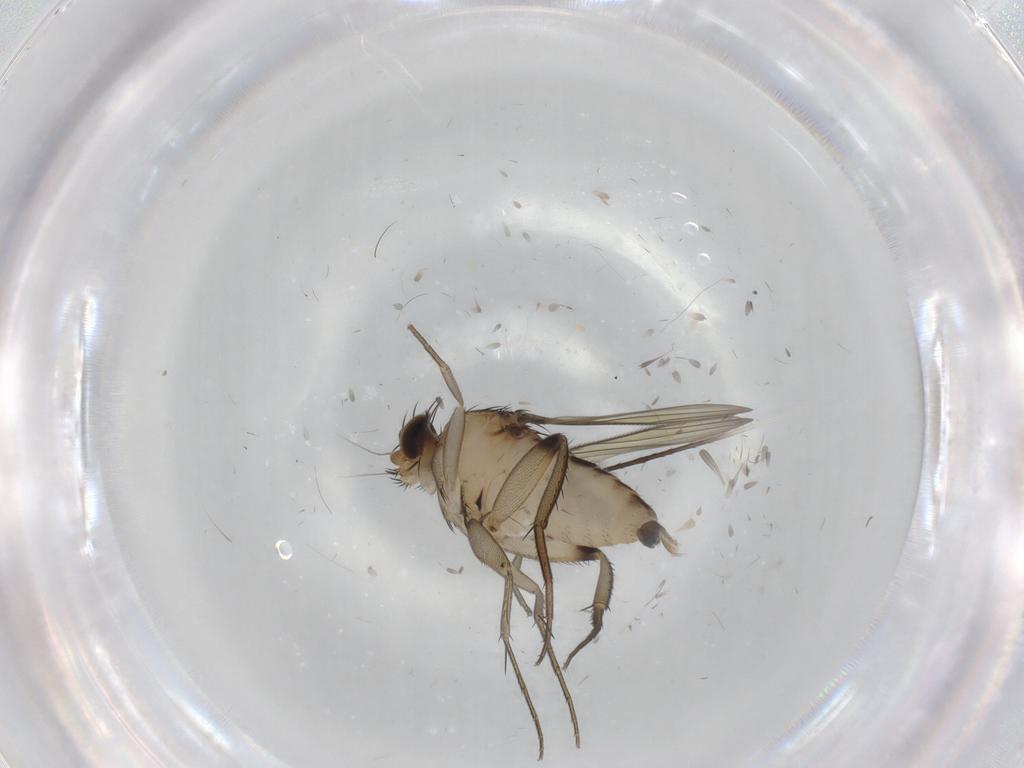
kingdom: Animalia
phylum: Arthropoda
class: Insecta
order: Diptera
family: Phoridae
